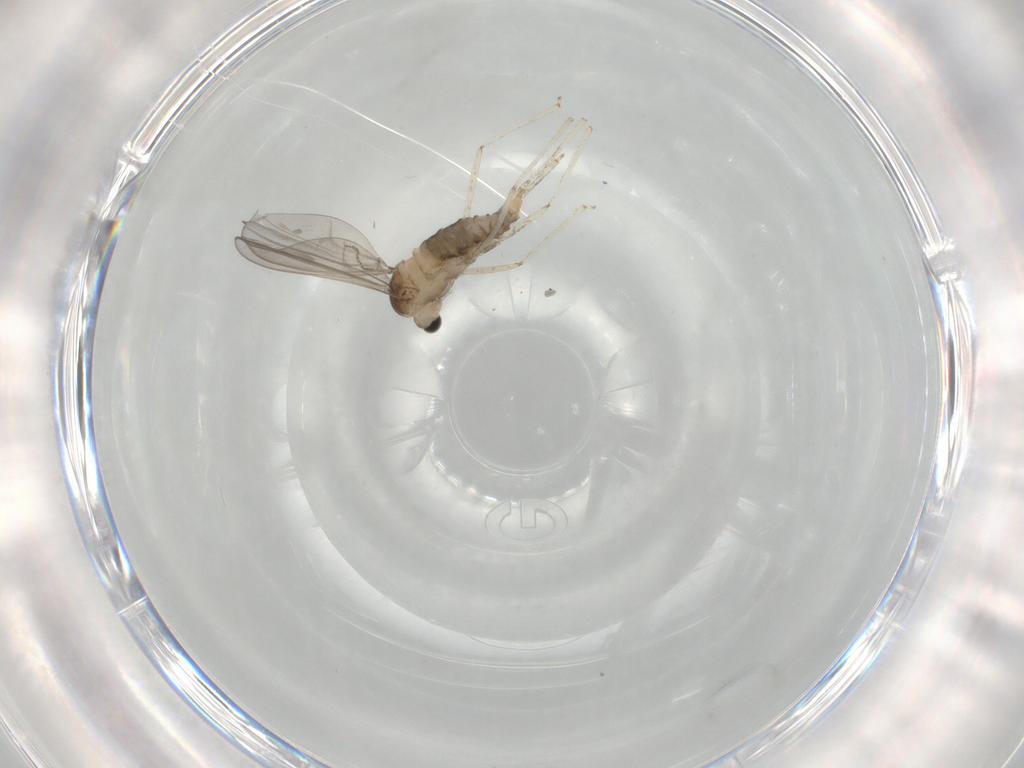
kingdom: Animalia
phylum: Arthropoda
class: Insecta
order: Diptera
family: Cecidomyiidae
